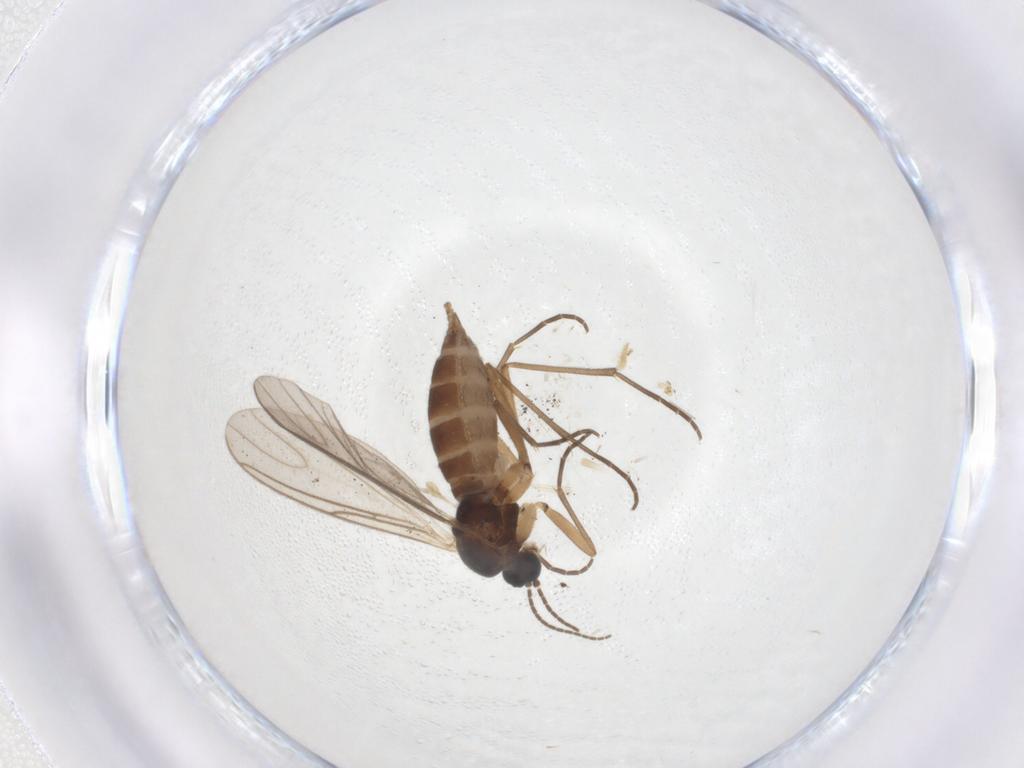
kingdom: Animalia
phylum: Arthropoda
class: Insecta
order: Diptera
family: Sciaridae
